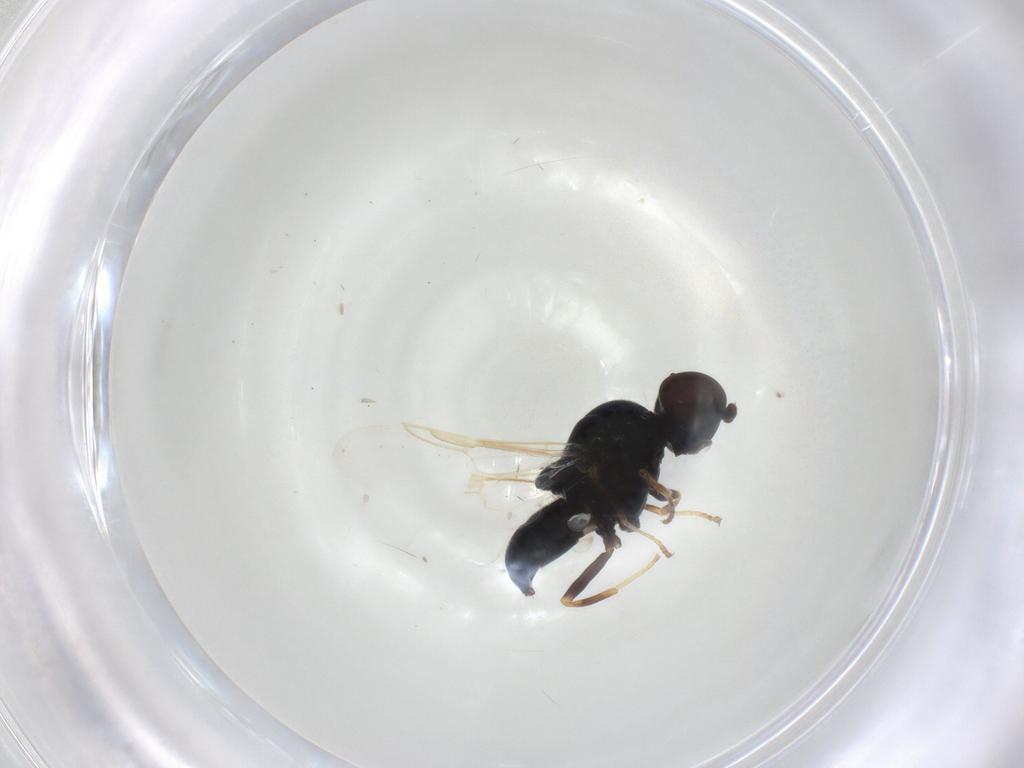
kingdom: Animalia
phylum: Arthropoda
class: Insecta
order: Diptera
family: Stratiomyidae
